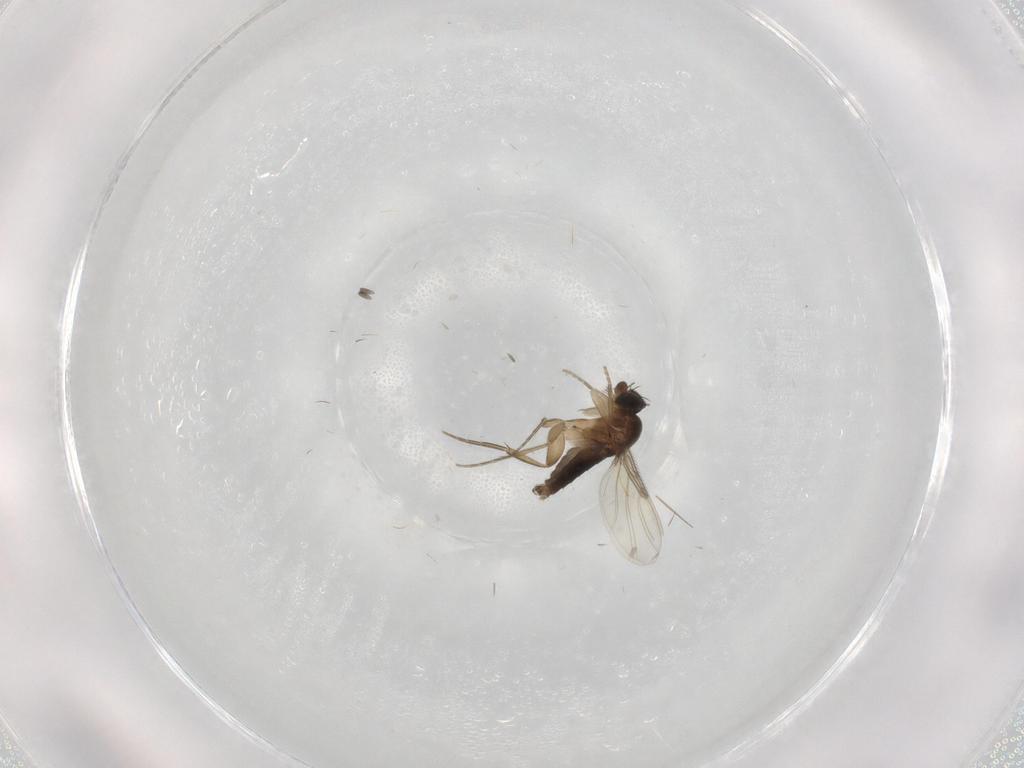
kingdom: Animalia
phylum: Arthropoda
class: Insecta
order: Diptera
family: Phoridae
